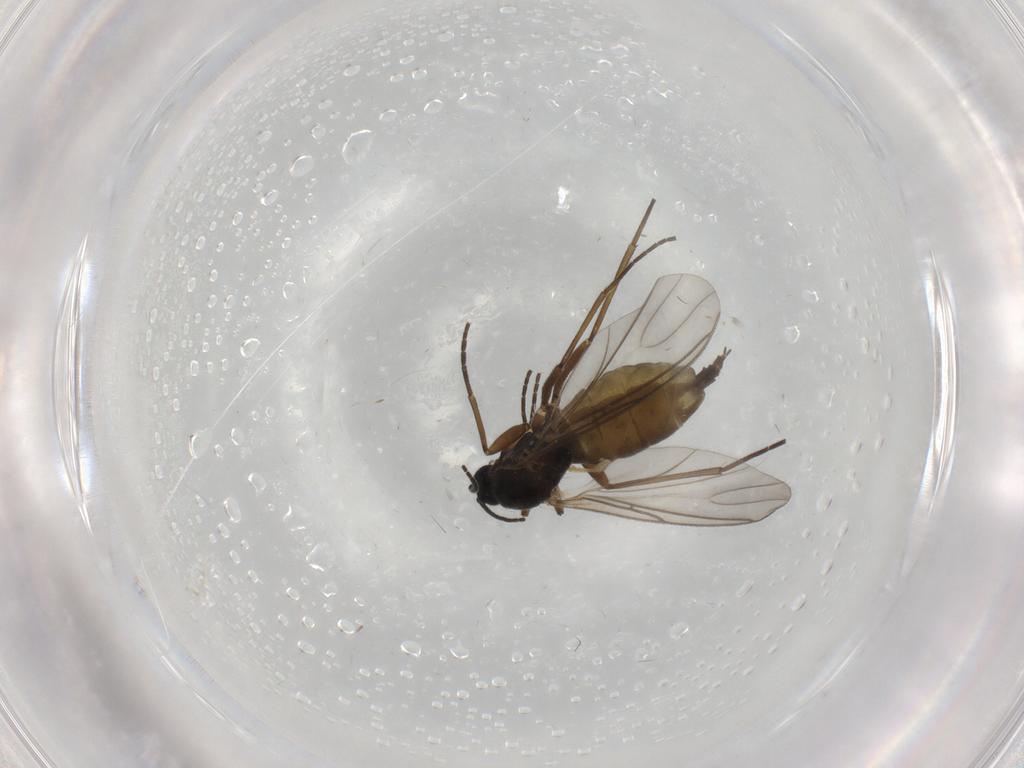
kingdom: Animalia
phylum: Arthropoda
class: Insecta
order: Diptera
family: Sciaridae
